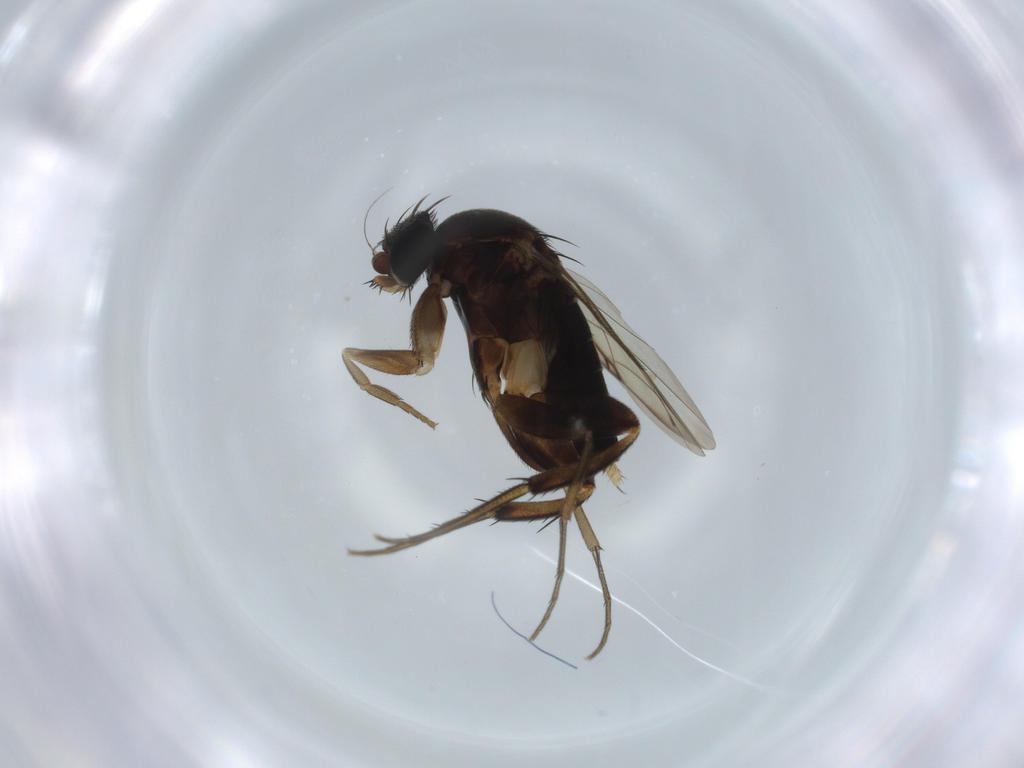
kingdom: Animalia
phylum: Arthropoda
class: Insecta
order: Diptera
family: Phoridae
